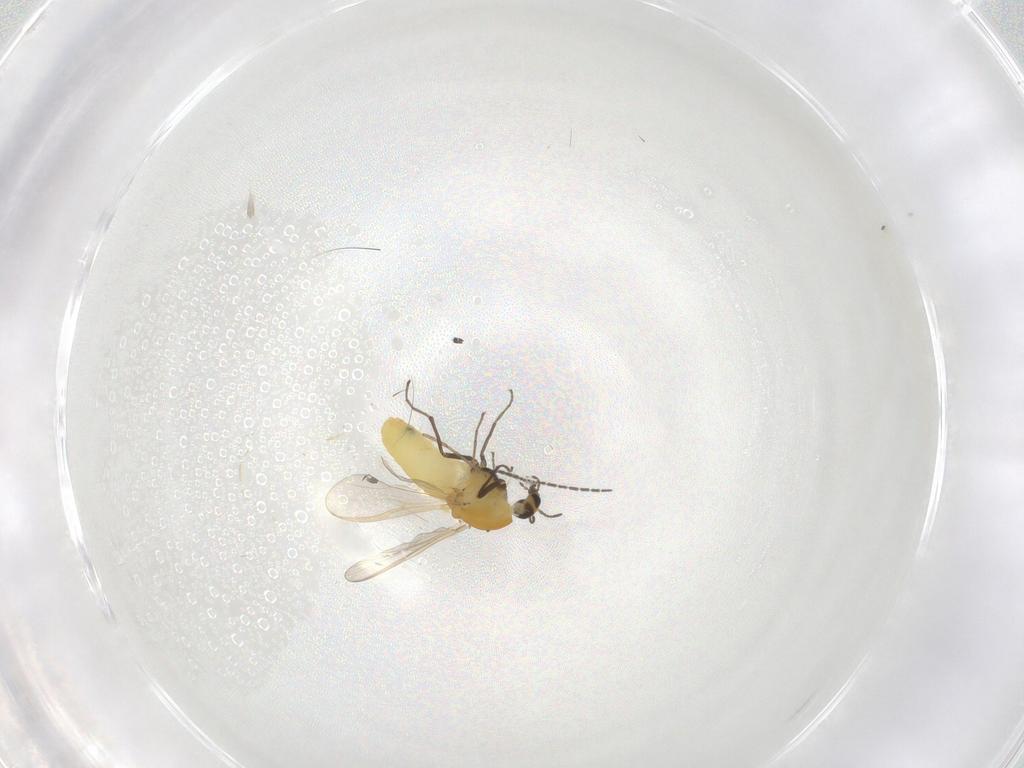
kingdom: Animalia
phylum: Arthropoda
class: Insecta
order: Diptera
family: Chironomidae
